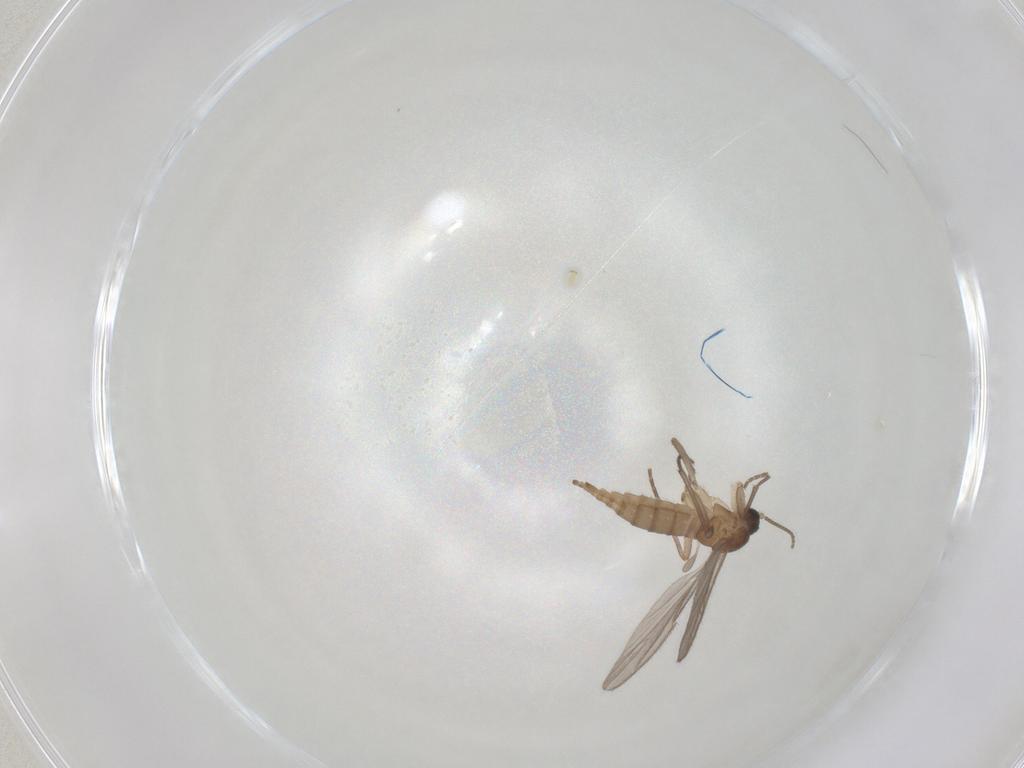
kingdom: Animalia
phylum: Arthropoda
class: Insecta
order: Diptera
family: Sciaridae
